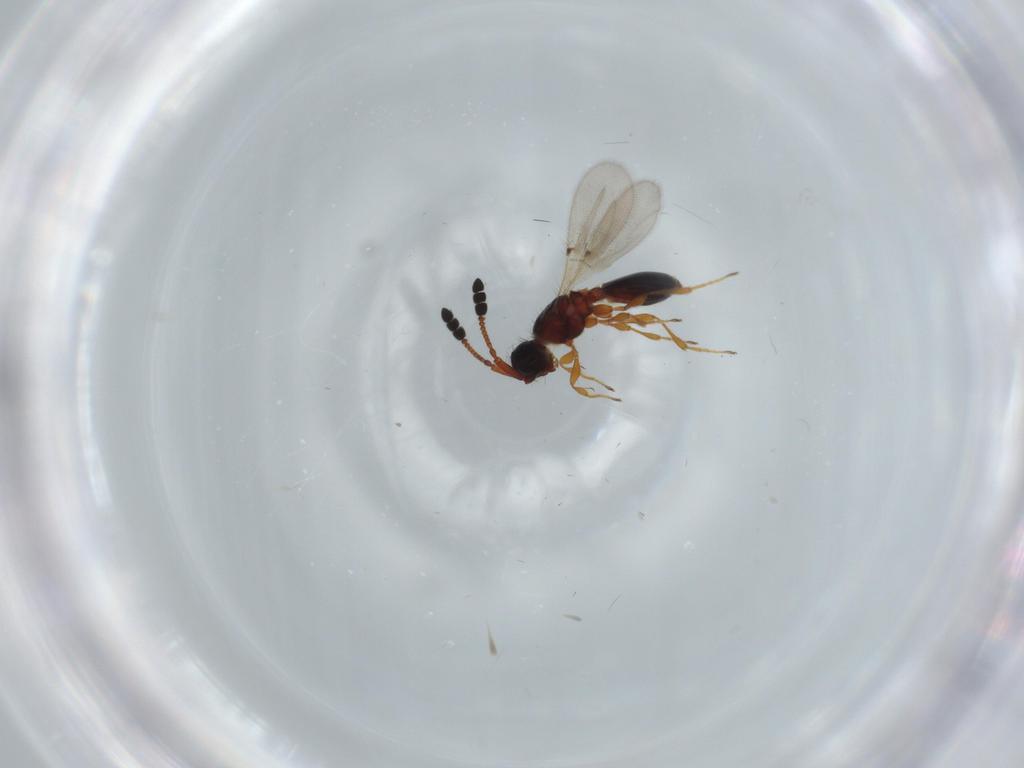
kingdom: Animalia
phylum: Arthropoda
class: Insecta
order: Hymenoptera
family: Diapriidae
